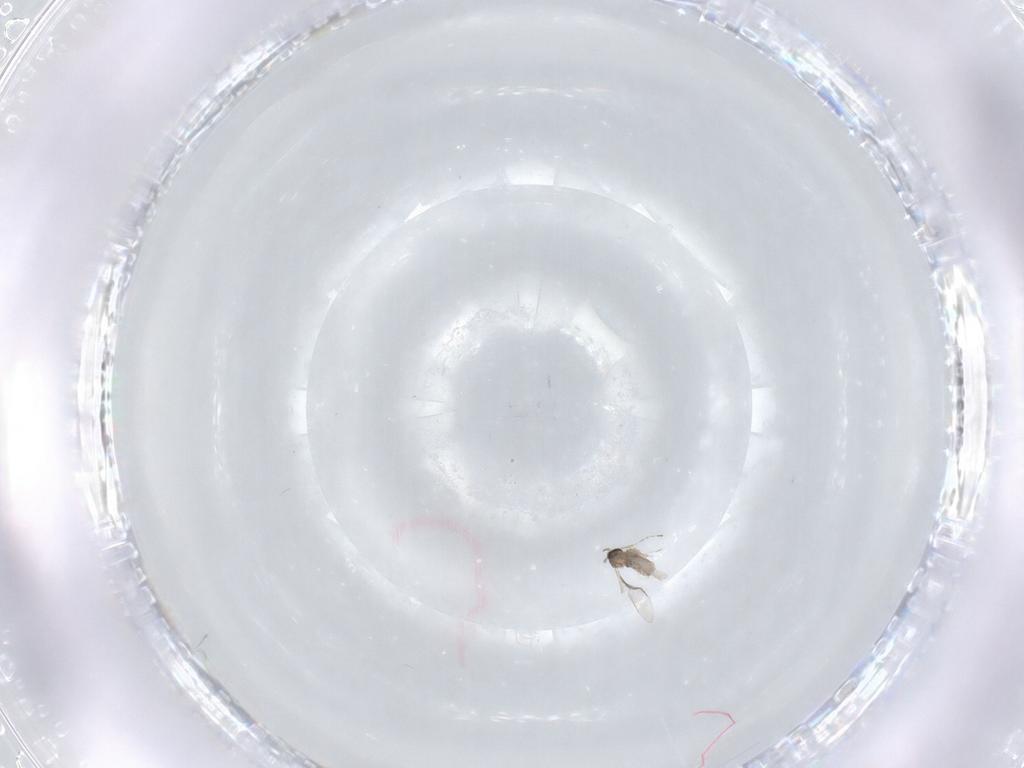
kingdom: Animalia
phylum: Arthropoda
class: Insecta
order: Diptera
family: Cecidomyiidae
